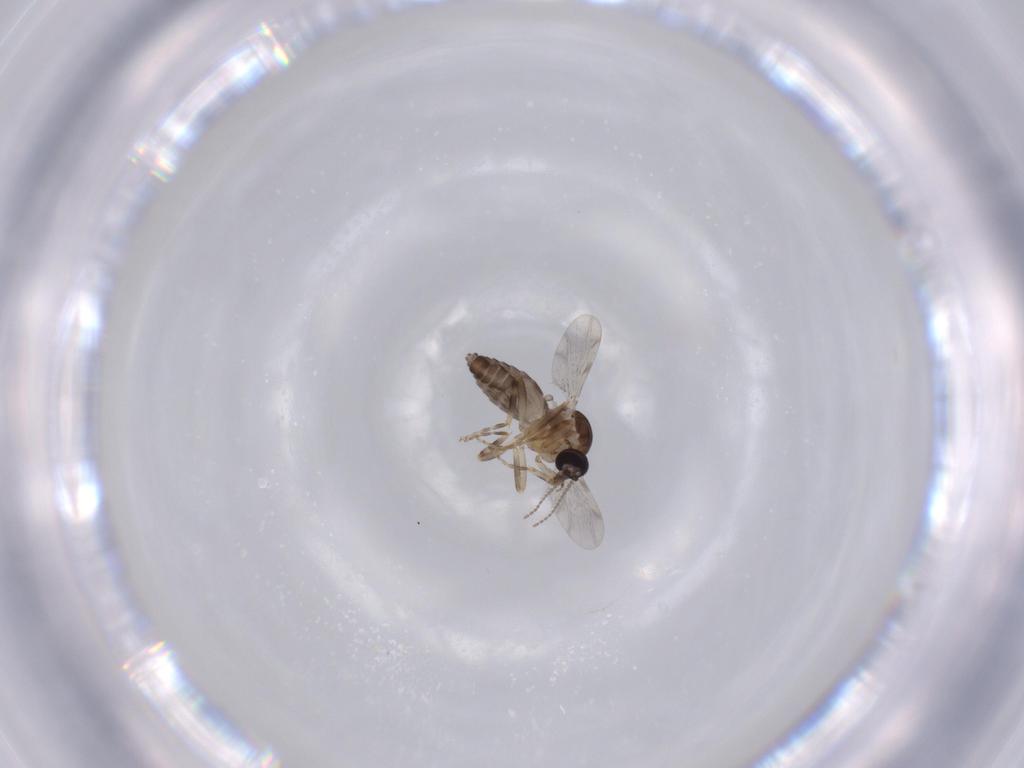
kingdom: Animalia
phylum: Arthropoda
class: Insecta
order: Diptera
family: Ceratopogonidae
